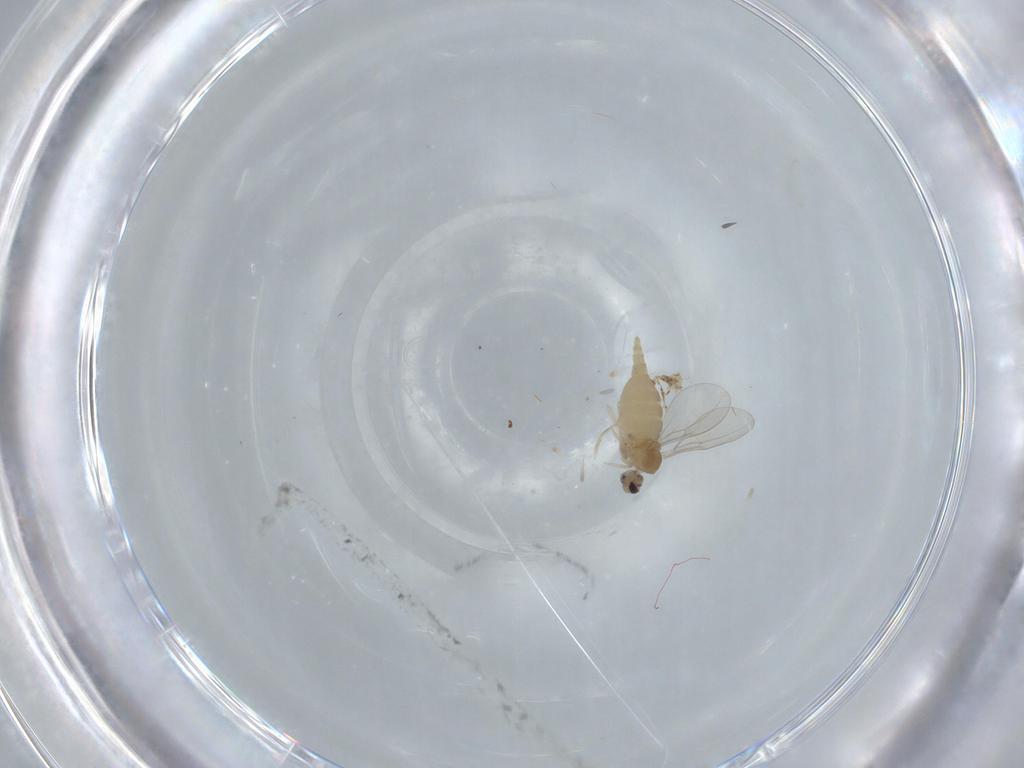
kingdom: Animalia
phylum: Arthropoda
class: Insecta
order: Diptera
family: Cecidomyiidae
